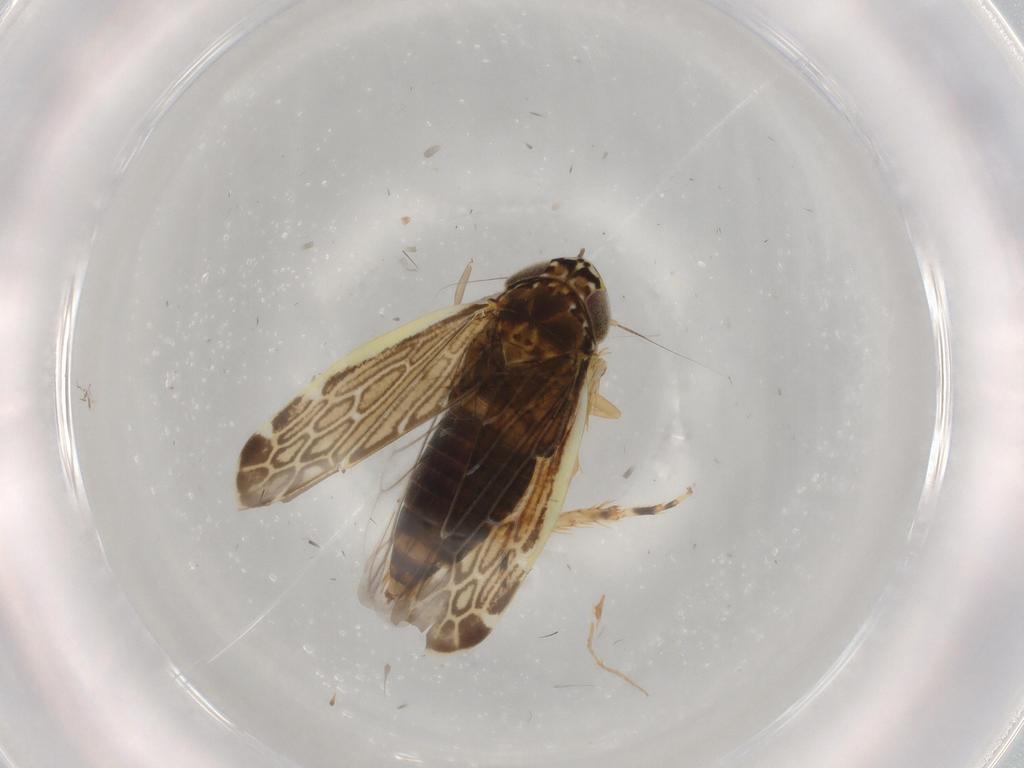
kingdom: Animalia
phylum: Arthropoda
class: Insecta
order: Hemiptera
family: Cicadellidae
